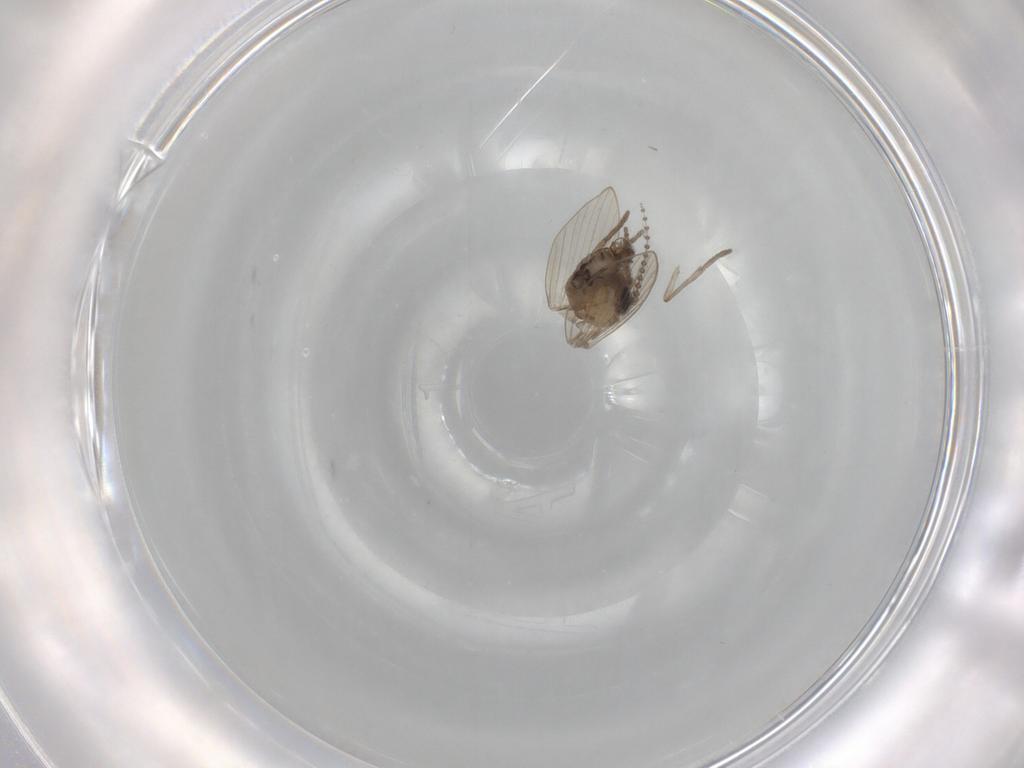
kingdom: Animalia
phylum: Arthropoda
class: Insecta
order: Diptera
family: Psychodidae
